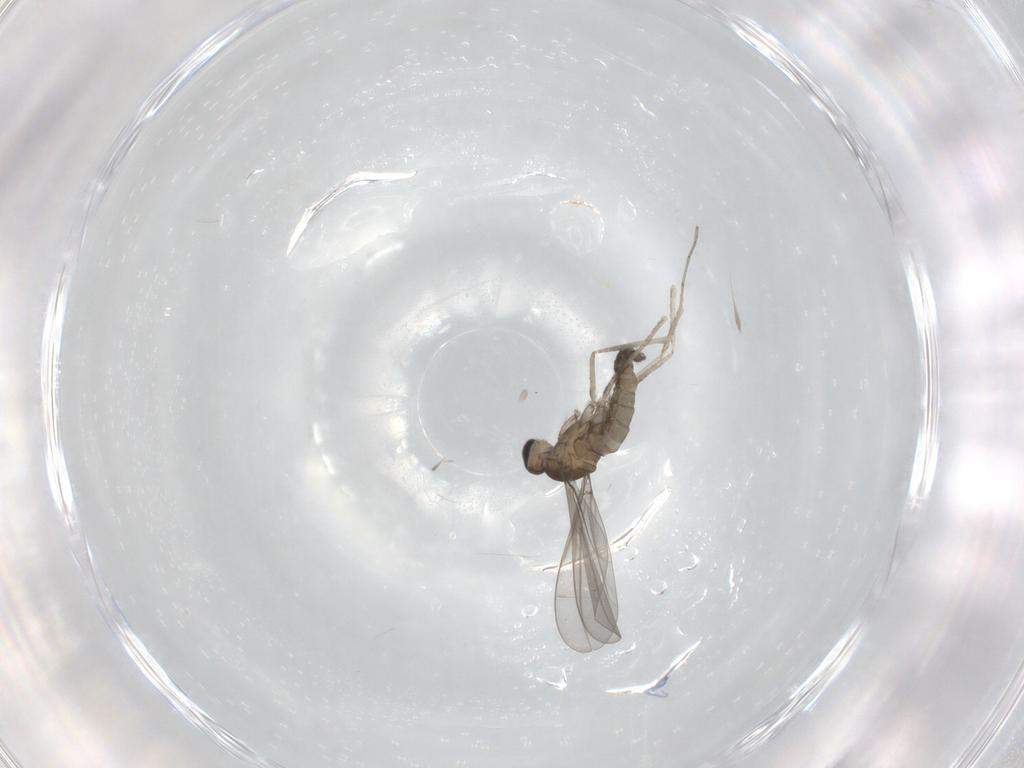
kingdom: Animalia
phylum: Arthropoda
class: Insecta
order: Diptera
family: Cecidomyiidae
